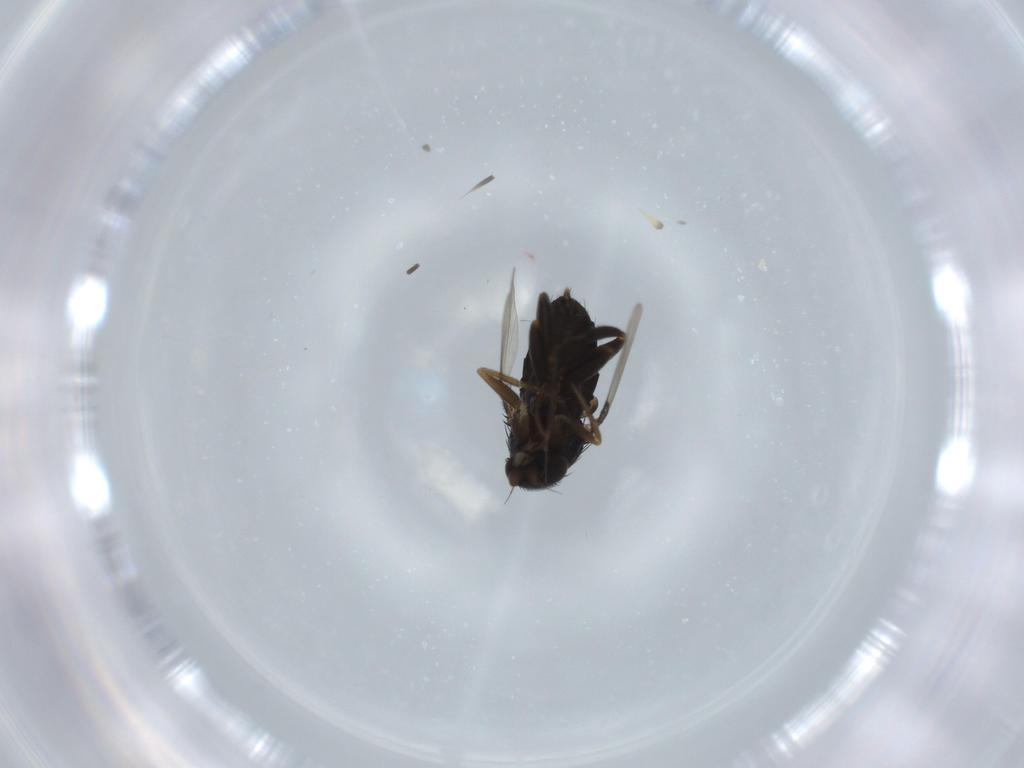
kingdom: Animalia
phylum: Arthropoda
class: Insecta
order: Diptera
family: Phoridae
